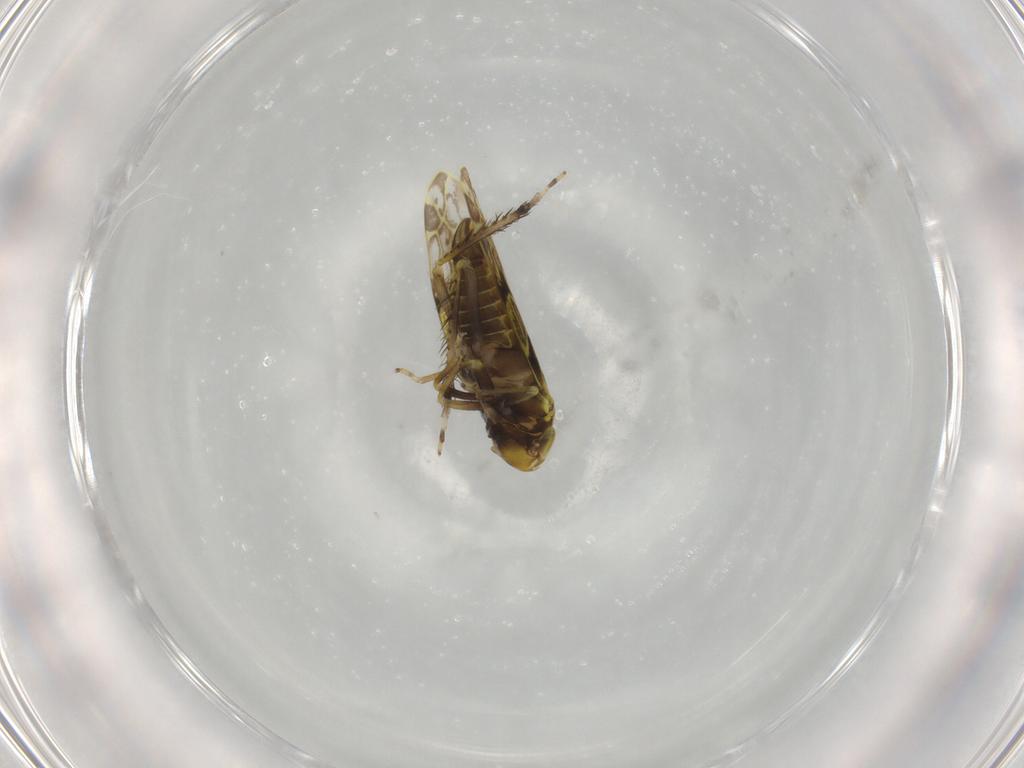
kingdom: Animalia
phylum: Arthropoda
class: Insecta
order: Hemiptera
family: Cicadellidae
